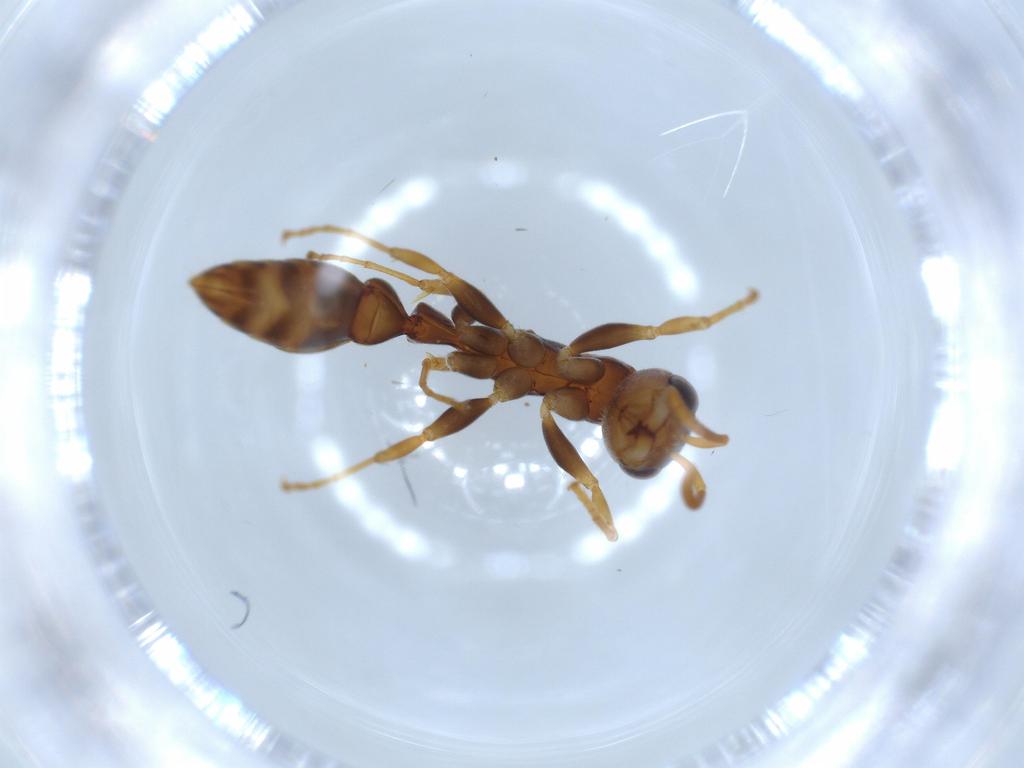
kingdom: Animalia
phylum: Arthropoda
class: Insecta
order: Hymenoptera
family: Formicidae
